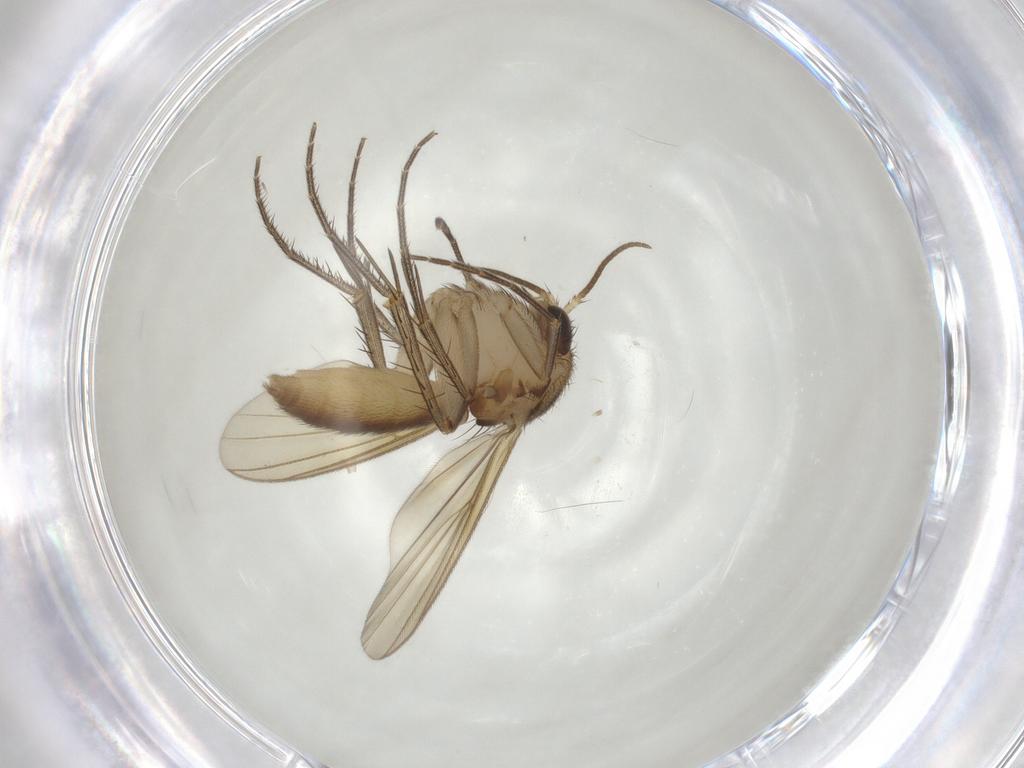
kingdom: Animalia
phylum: Arthropoda
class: Insecta
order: Diptera
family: Mycetophilidae
